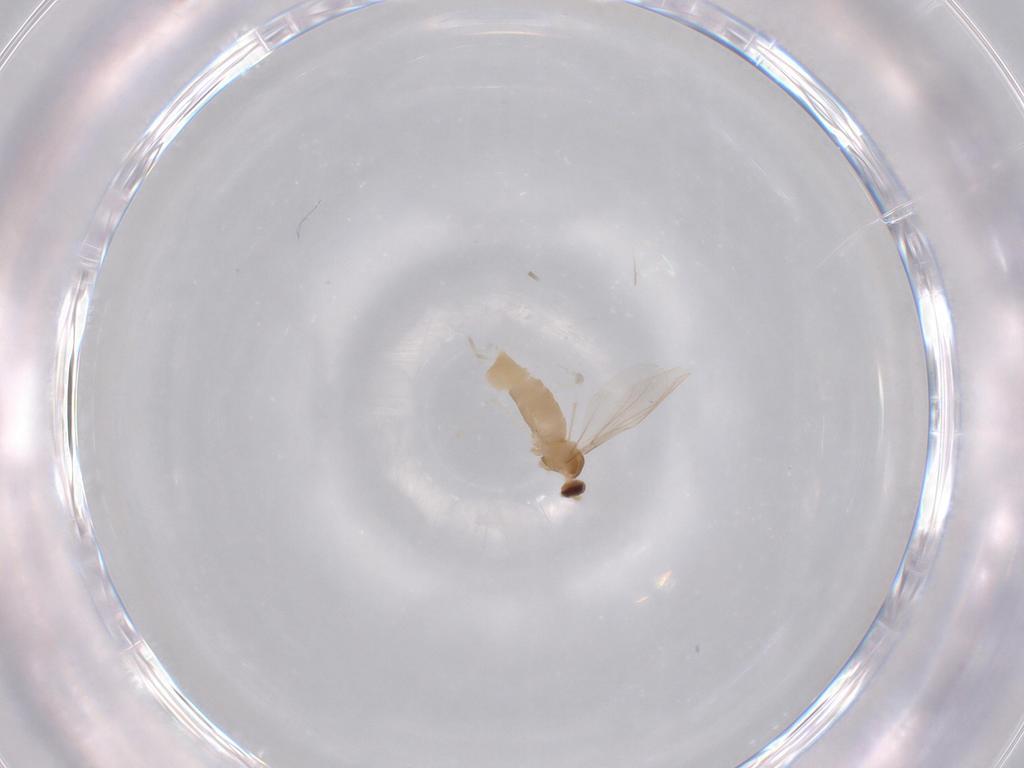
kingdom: Animalia
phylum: Arthropoda
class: Insecta
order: Diptera
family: Cecidomyiidae
